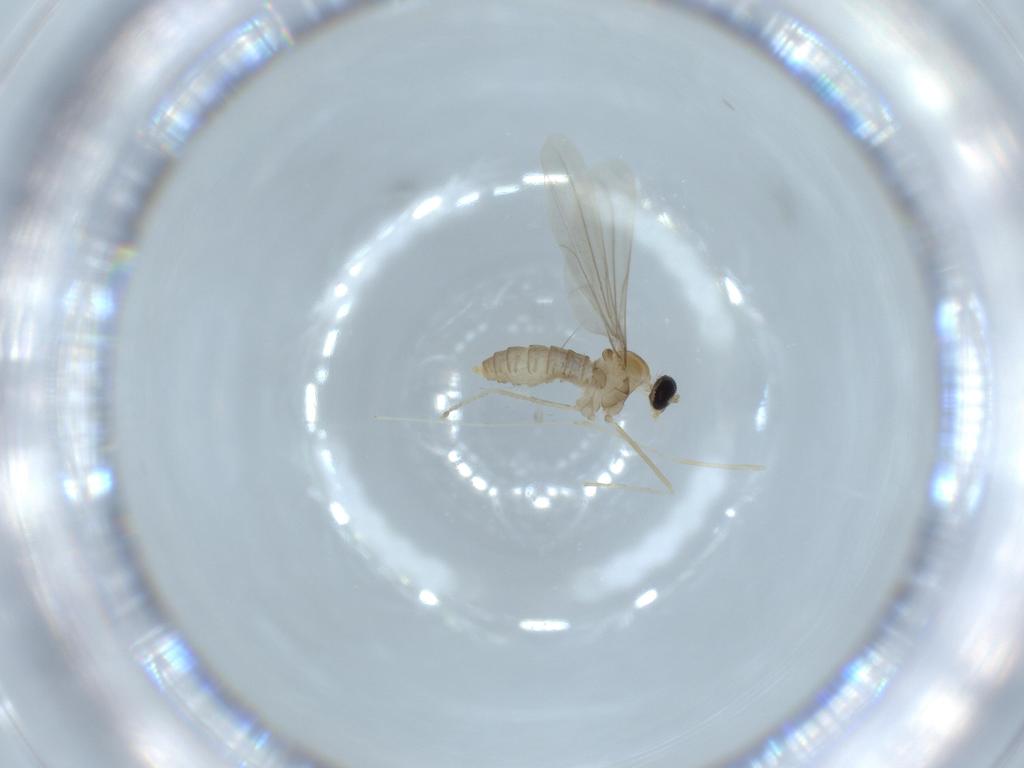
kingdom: Animalia
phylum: Arthropoda
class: Insecta
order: Diptera
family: Cecidomyiidae
